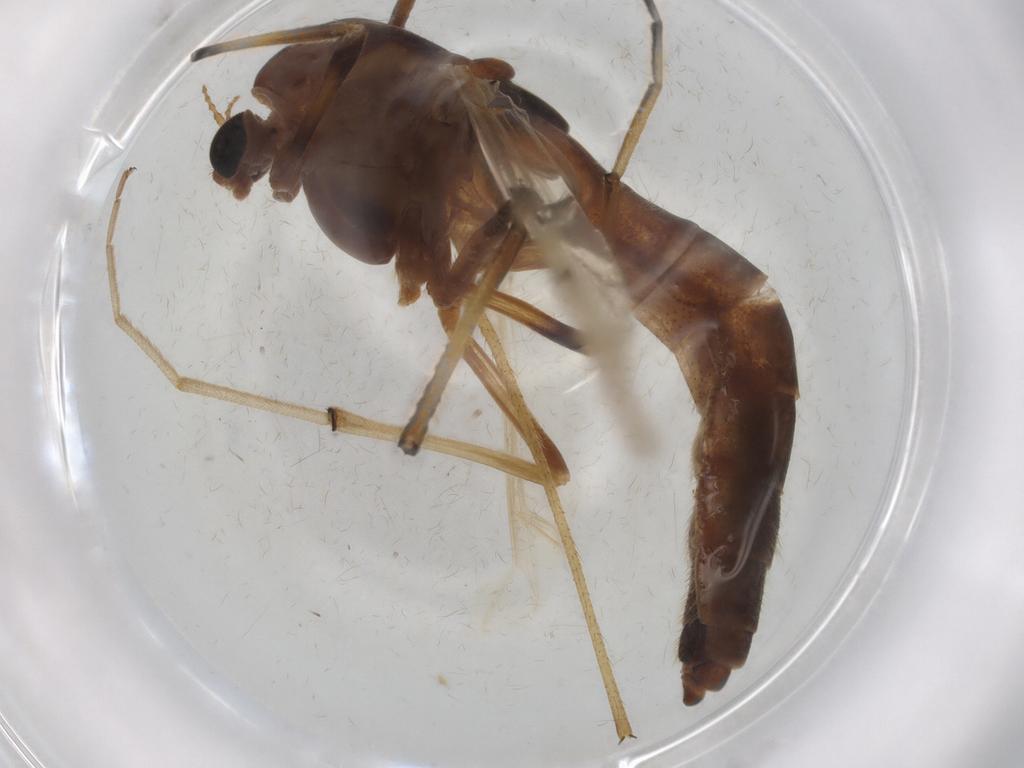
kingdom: Animalia
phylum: Arthropoda
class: Insecta
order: Diptera
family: Chironomidae
